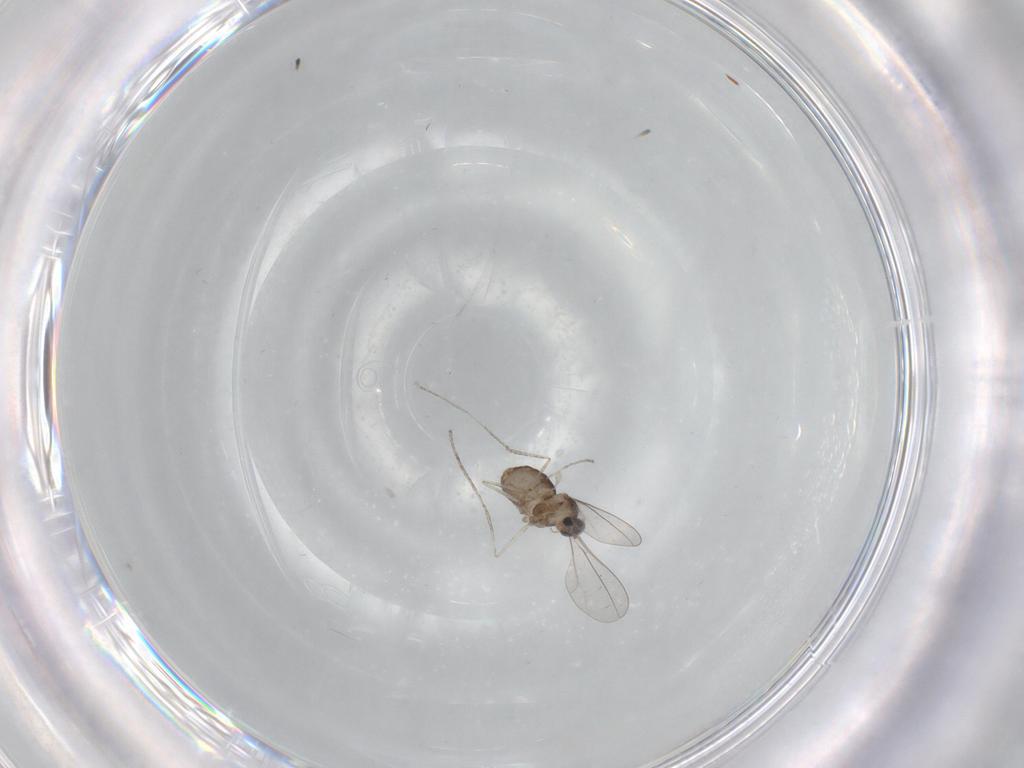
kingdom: Animalia
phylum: Arthropoda
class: Insecta
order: Diptera
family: Cecidomyiidae
